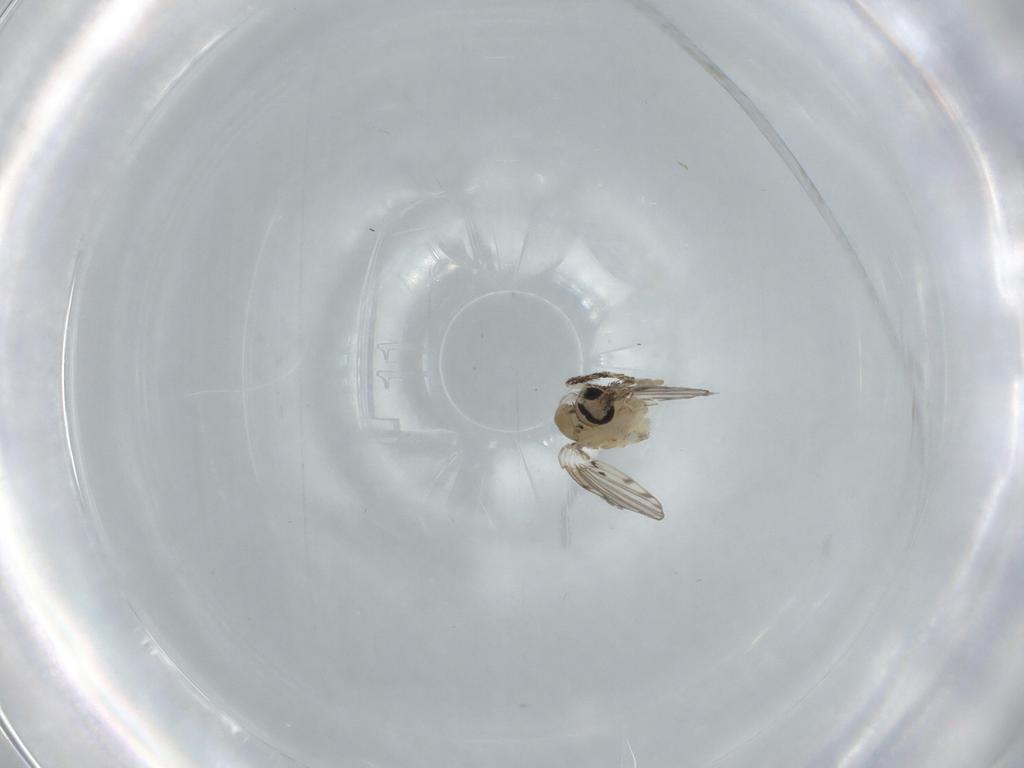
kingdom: Animalia
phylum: Arthropoda
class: Insecta
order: Diptera
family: Psychodidae
